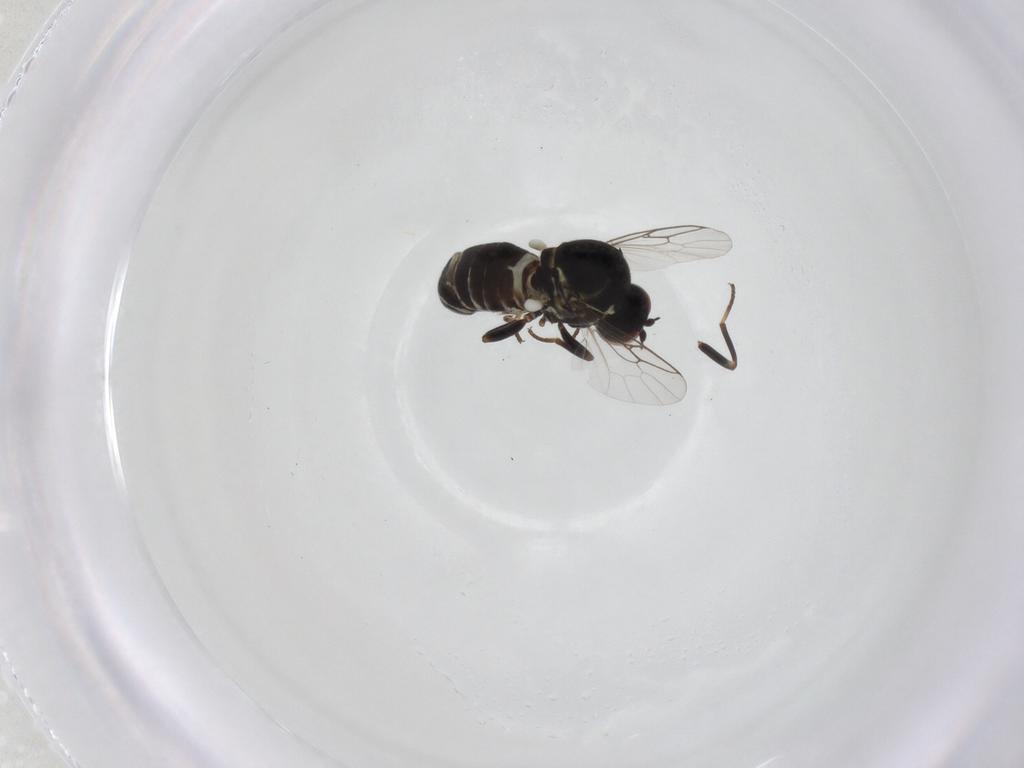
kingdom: Animalia
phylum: Arthropoda
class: Insecta
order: Diptera
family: Bombyliidae
